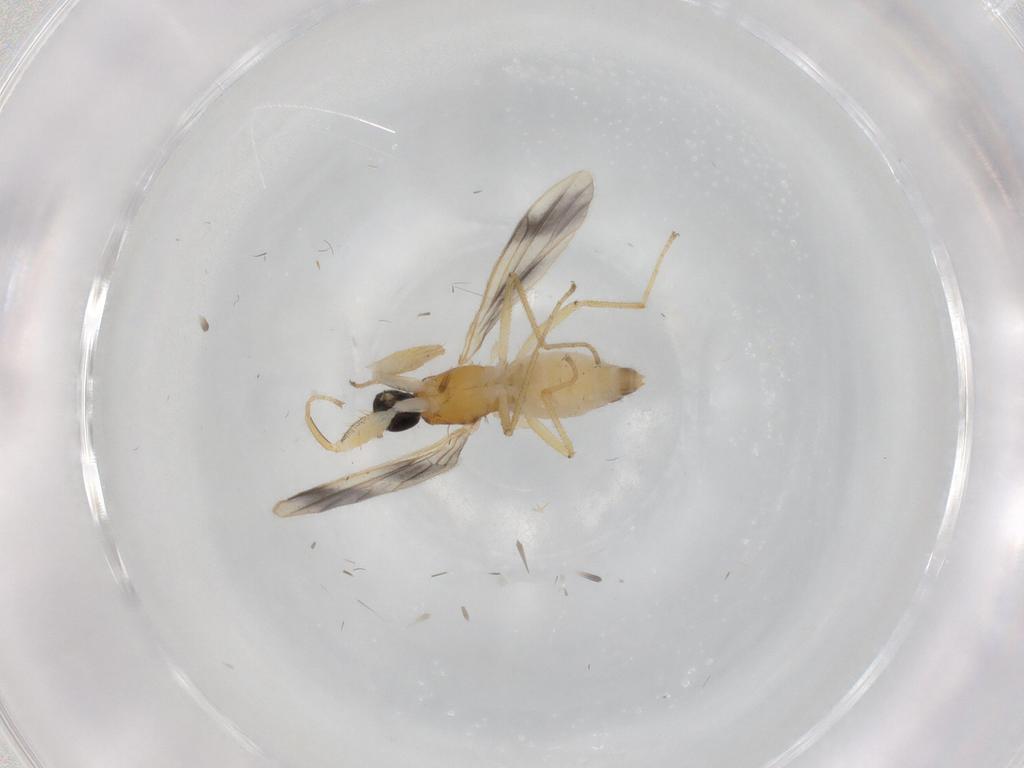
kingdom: Animalia
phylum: Arthropoda
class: Insecta
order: Diptera
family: Empididae
